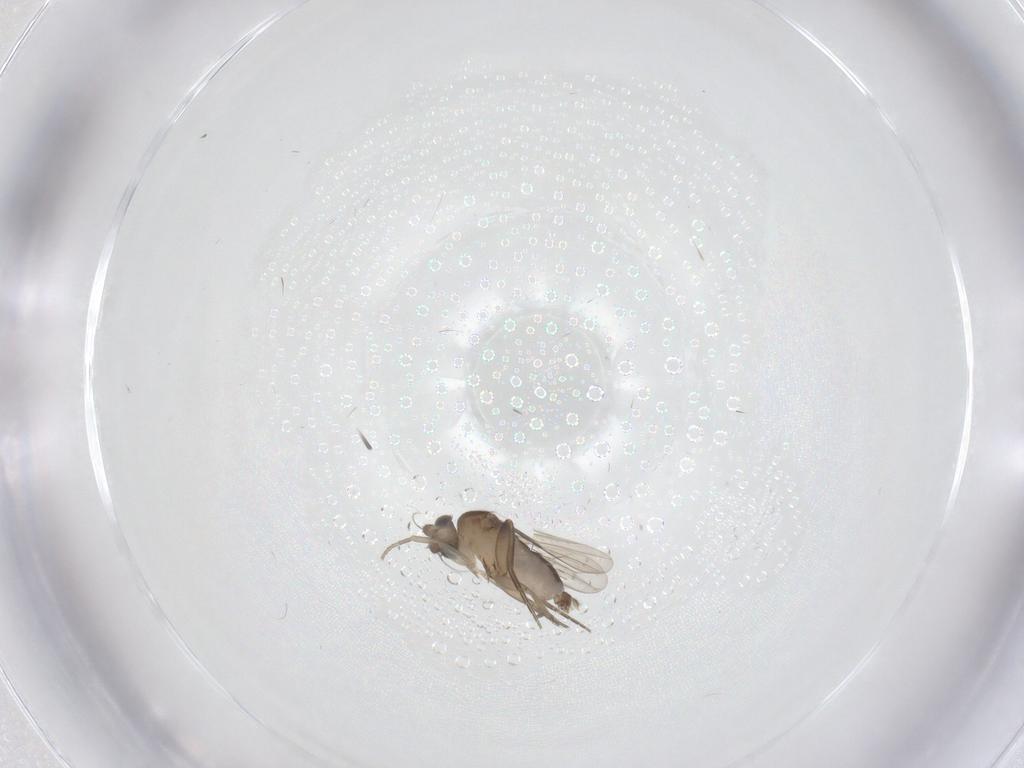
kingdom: Animalia
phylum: Arthropoda
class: Insecta
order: Diptera
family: Phoridae
